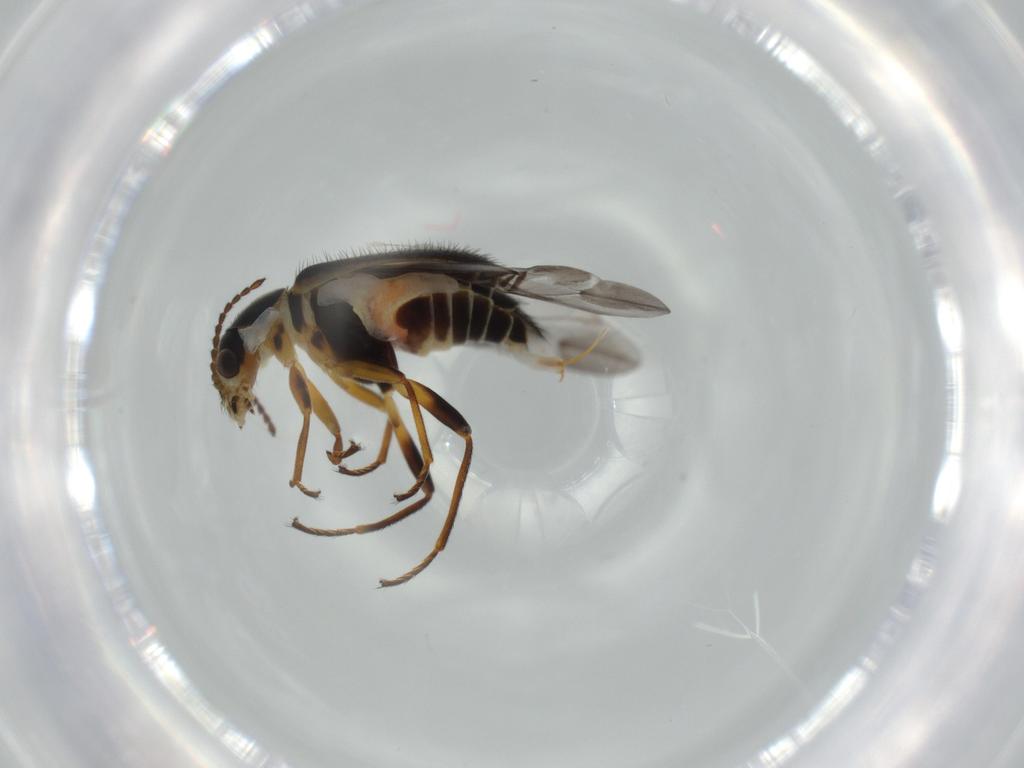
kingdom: Animalia
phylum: Arthropoda
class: Insecta
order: Coleoptera
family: Melyridae
